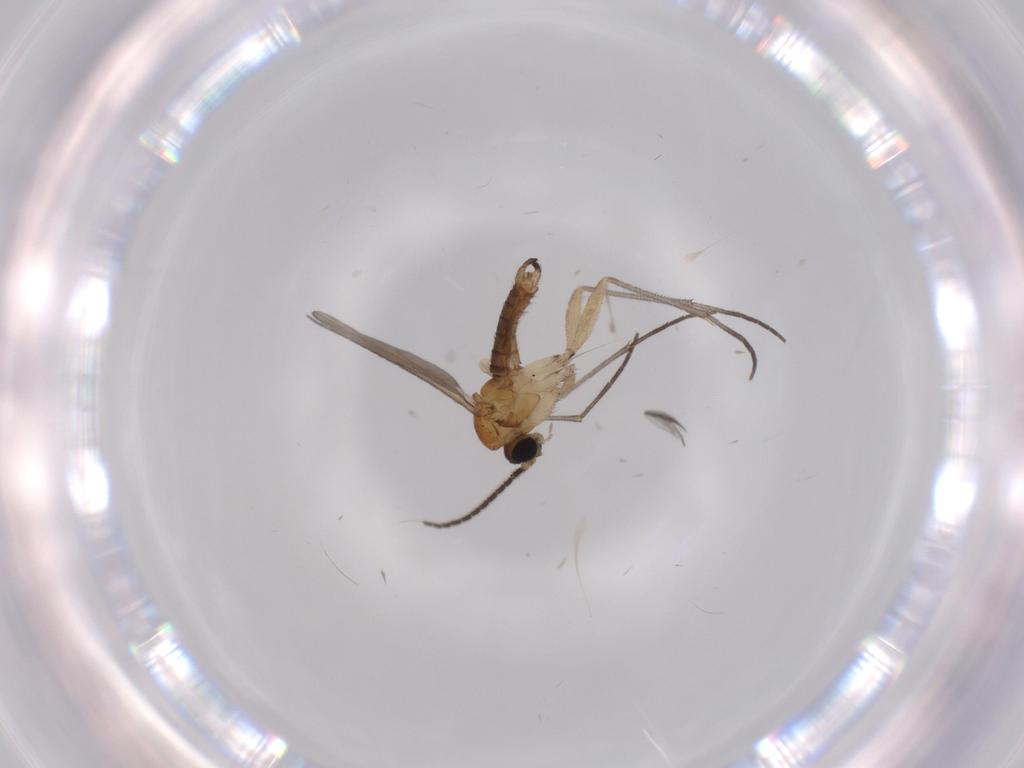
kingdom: Animalia
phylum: Arthropoda
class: Insecta
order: Diptera
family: Sciaridae
